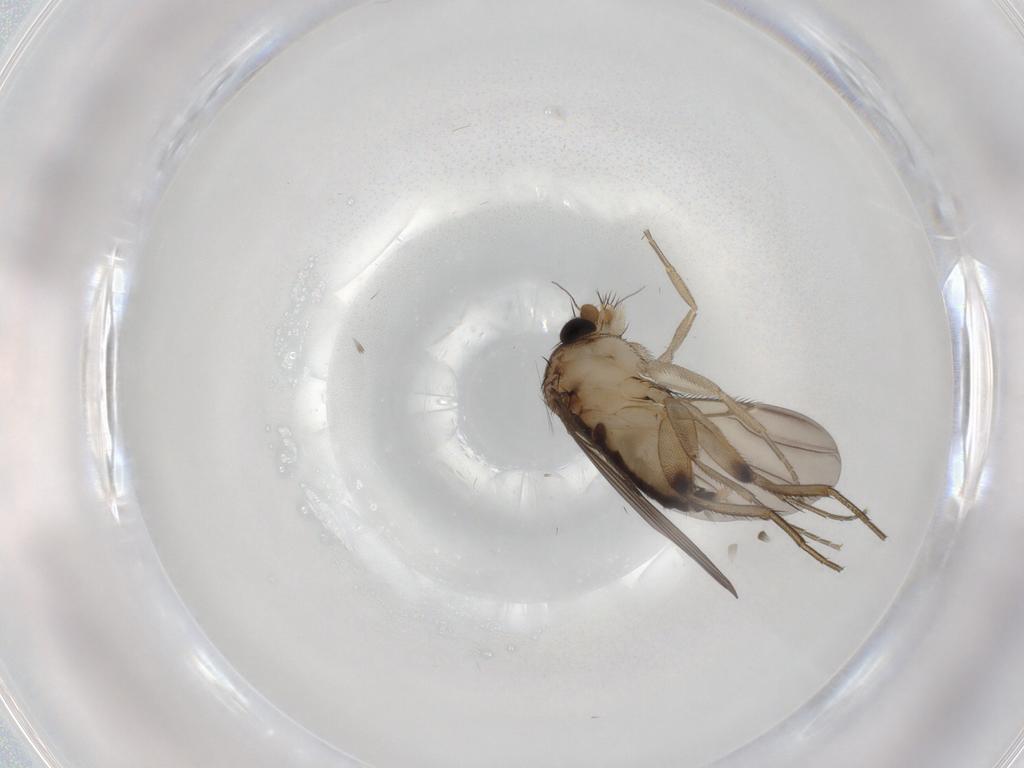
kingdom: Animalia
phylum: Arthropoda
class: Insecta
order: Diptera
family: Phoridae
